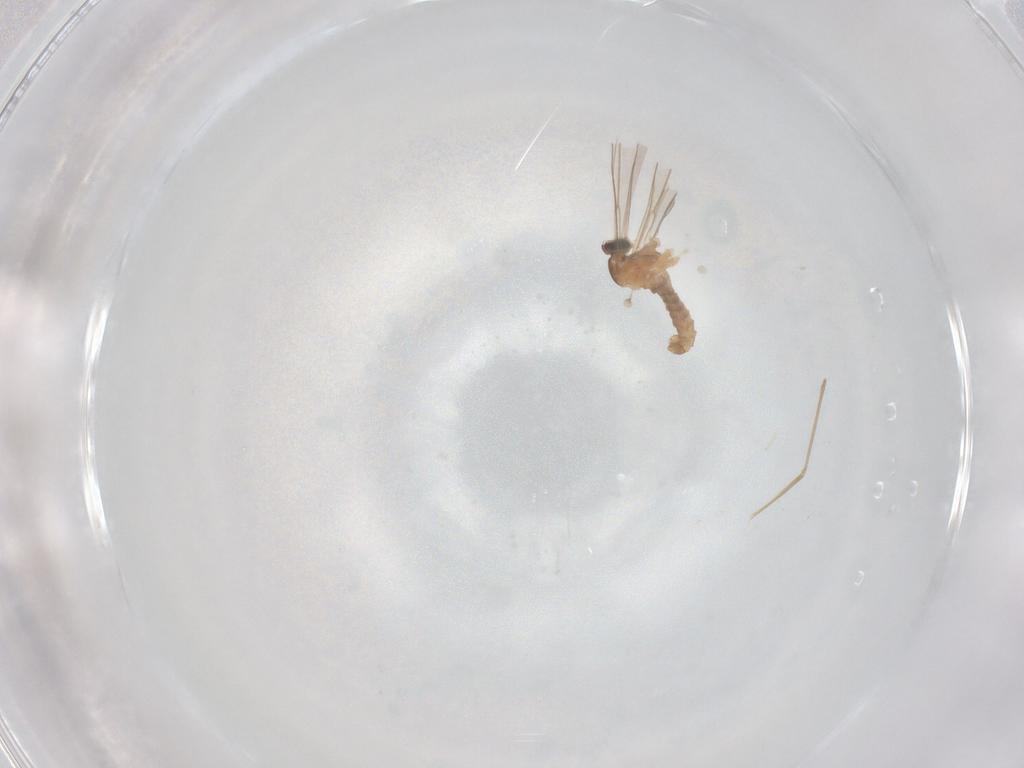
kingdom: Animalia
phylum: Arthropoda
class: Insecta
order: Diptera
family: Cecidomyiidae
